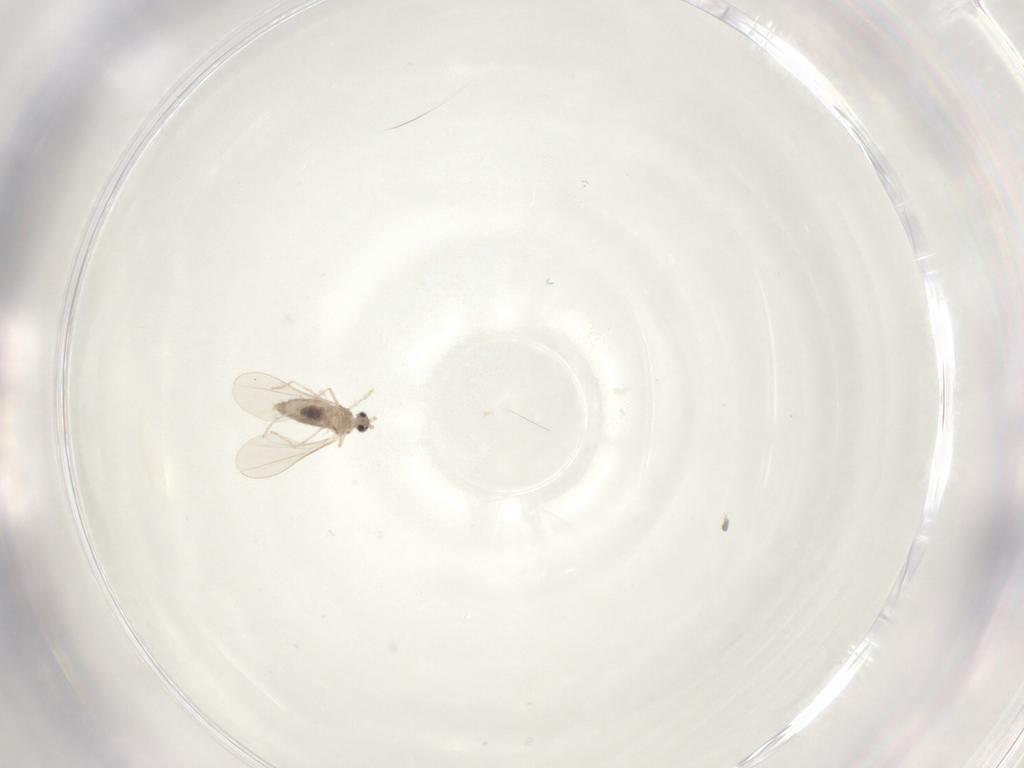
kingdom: Animalia
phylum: Arthropoda
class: Insecta
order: Diptera
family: Cecidomyiidae
